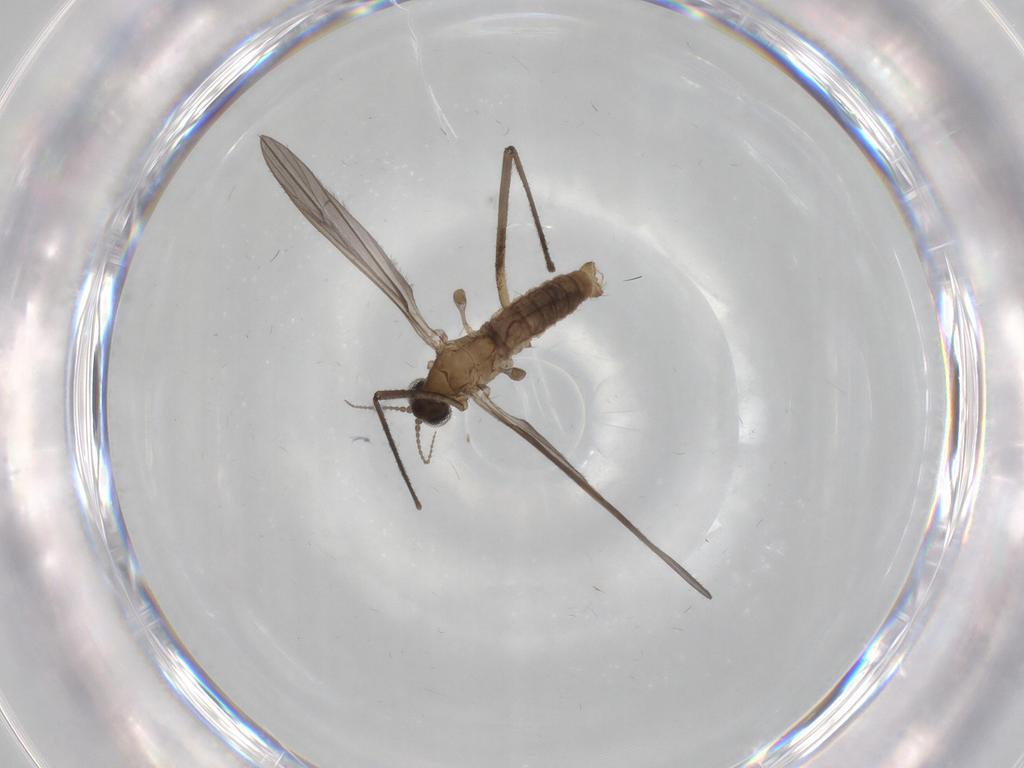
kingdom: Animalia
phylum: Arthropoda
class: Insecta
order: Diptera
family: Cecidomyiidae
